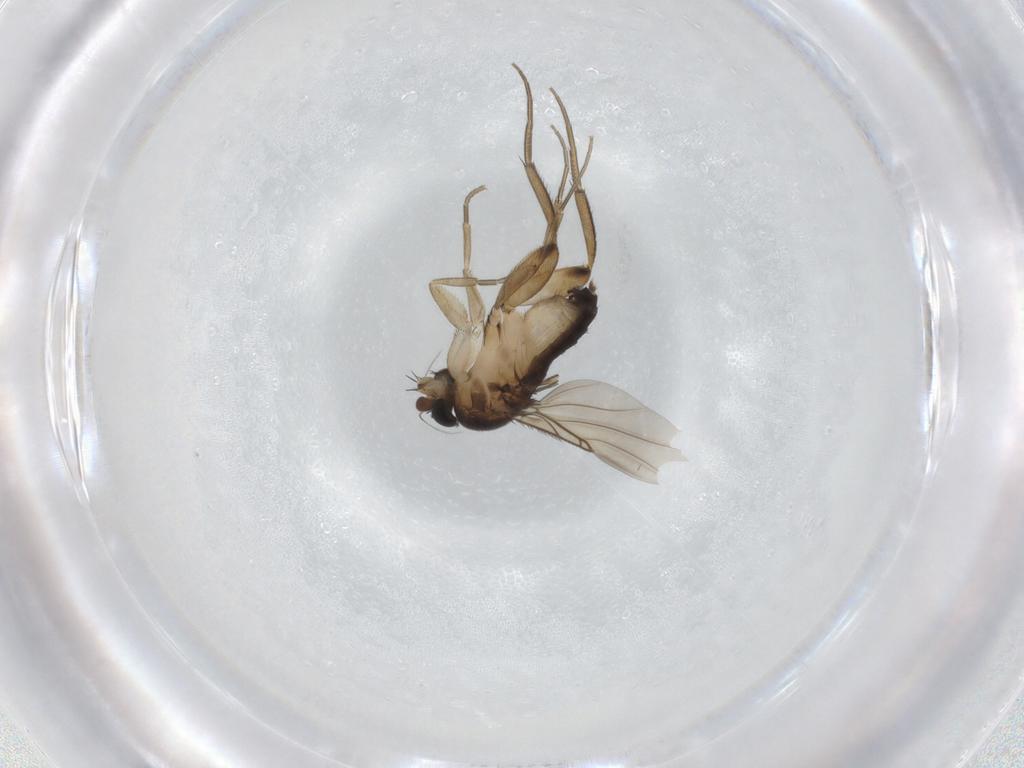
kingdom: Animalia
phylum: Arthropoda
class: Insecta
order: Diptera
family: Phoridae
